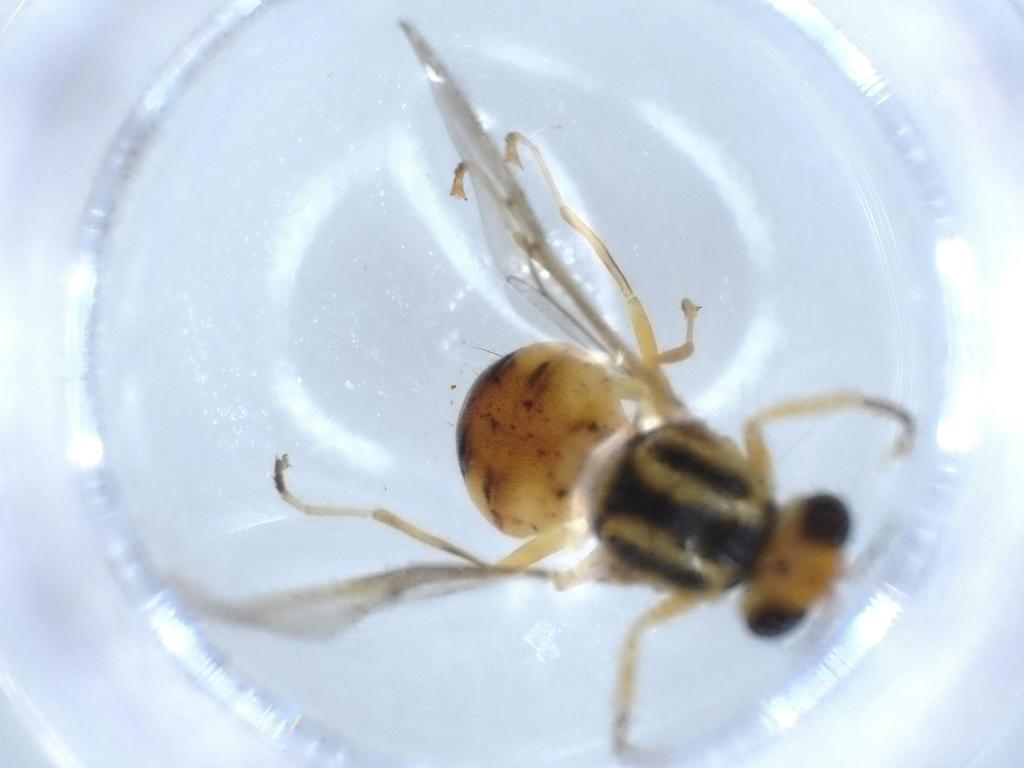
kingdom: Animalia
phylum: Arthropoda
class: Insecta
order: Diptera
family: Stratiomyidae
